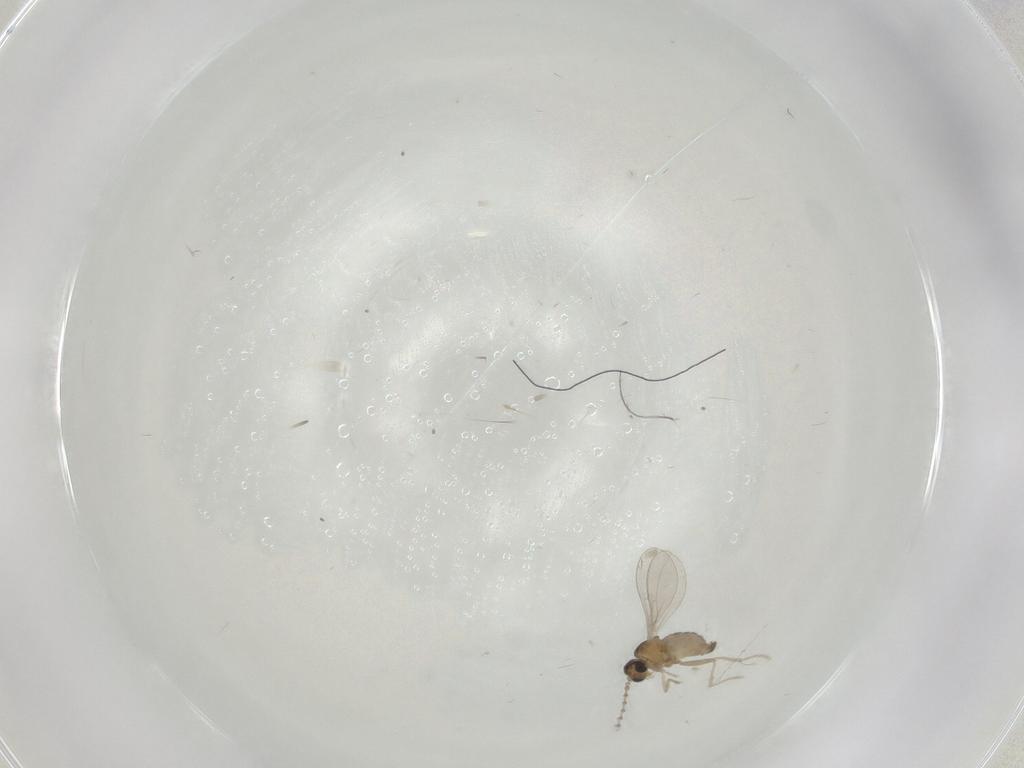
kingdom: Animalia
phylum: Arthropoda
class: Insecta
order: Diptera
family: Cecidomyiidae
